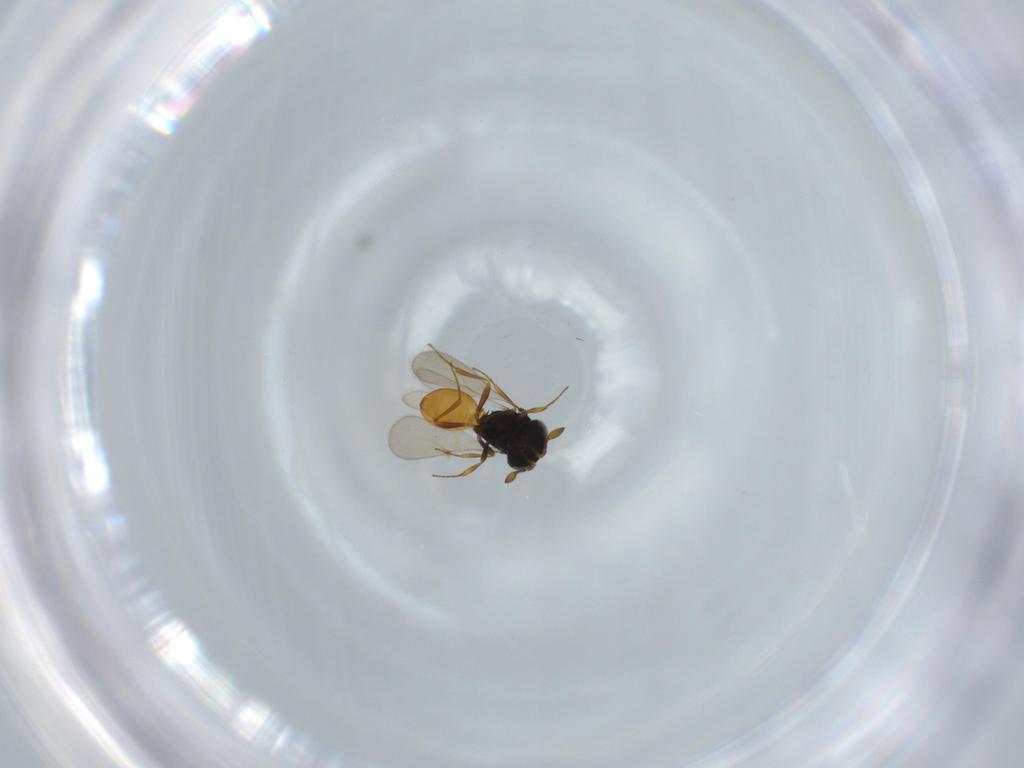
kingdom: Animalia
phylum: Arthropoda
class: Insecta
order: Hymenoptera
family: Scelionidae
